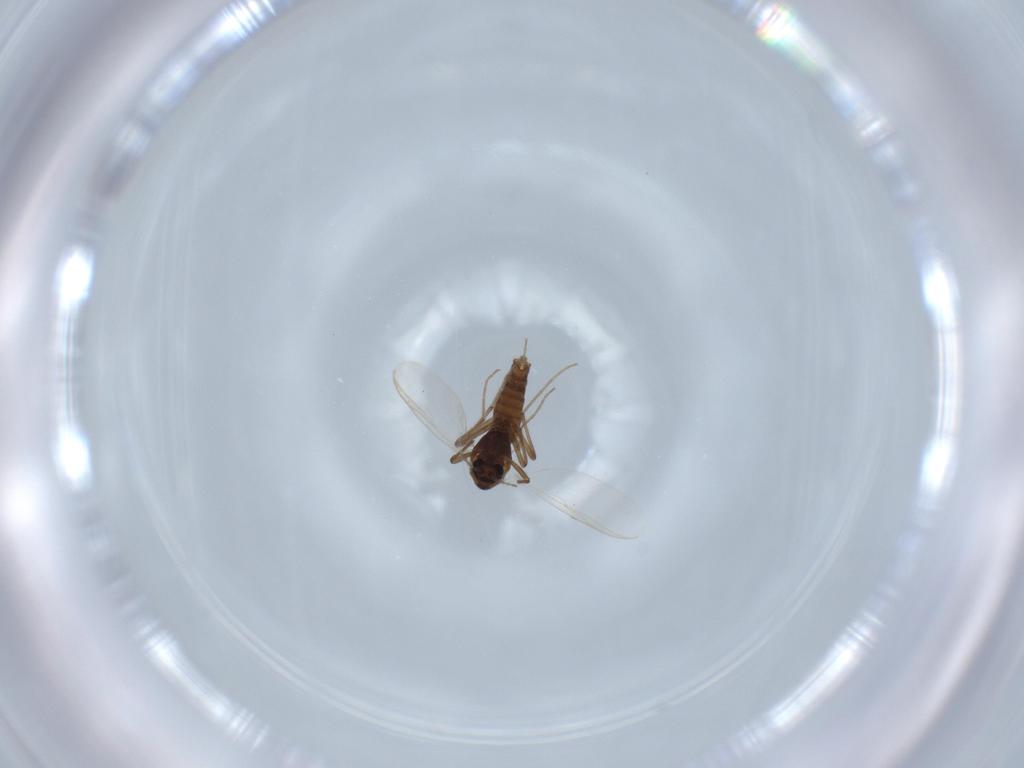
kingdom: Animalia
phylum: Arthropoda
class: Insecta
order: Diptera
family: Chironomidae
